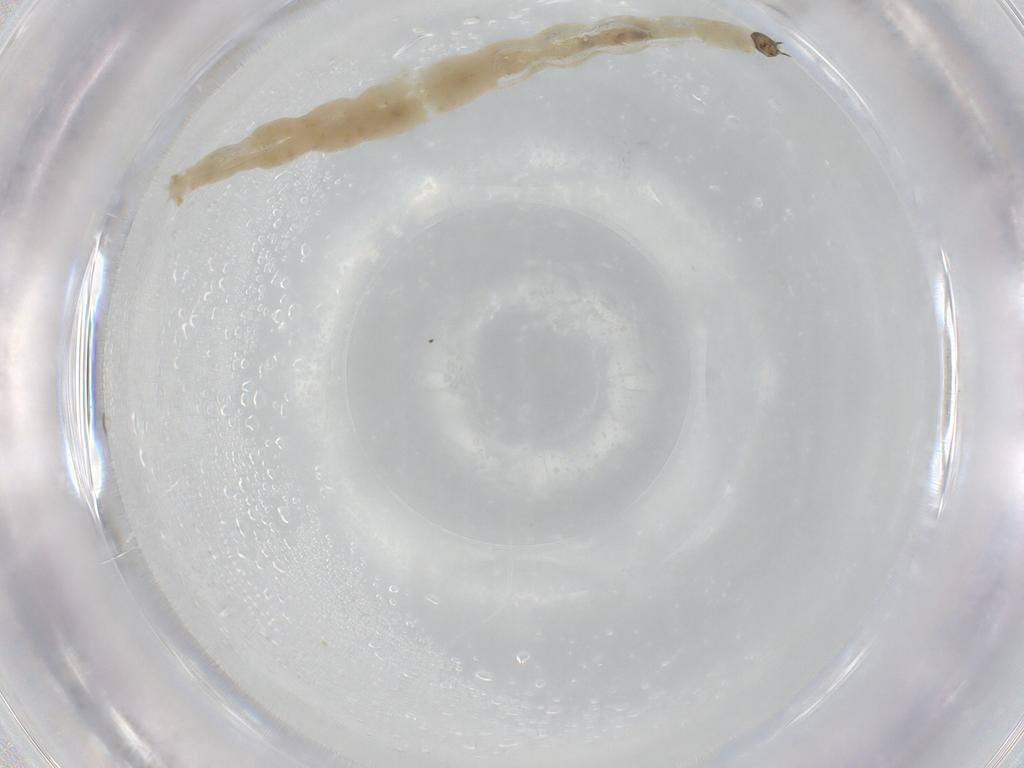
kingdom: Animalia
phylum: Arthropoda
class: Insecta
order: Diptera
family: Chironomidae
